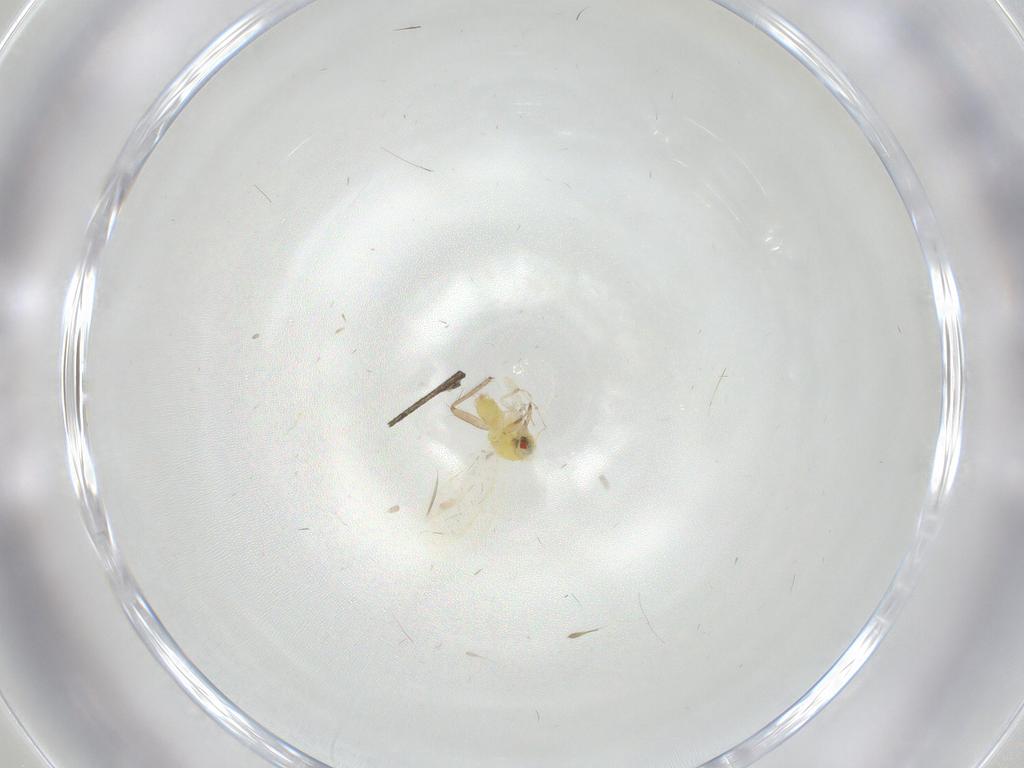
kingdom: Animalia
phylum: Arthropoda
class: Insecta
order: Hemiptera
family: Ceratocombidae
